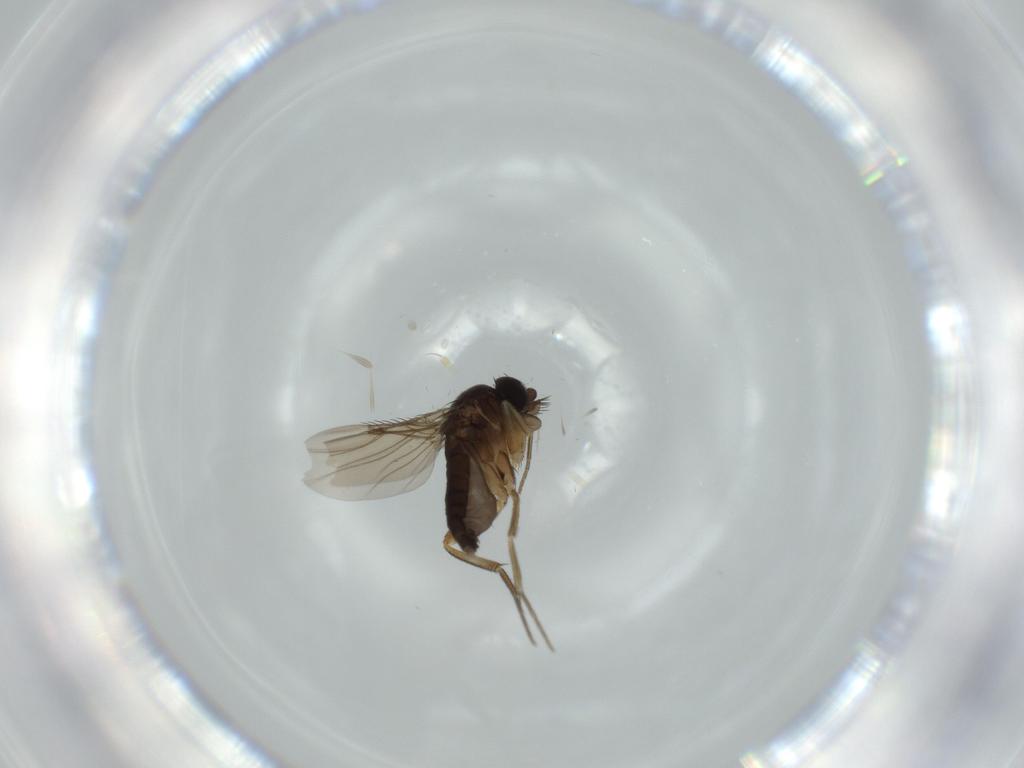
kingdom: Animalia
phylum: Arthropoda
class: Insecta
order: Diptera
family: Phoridae
